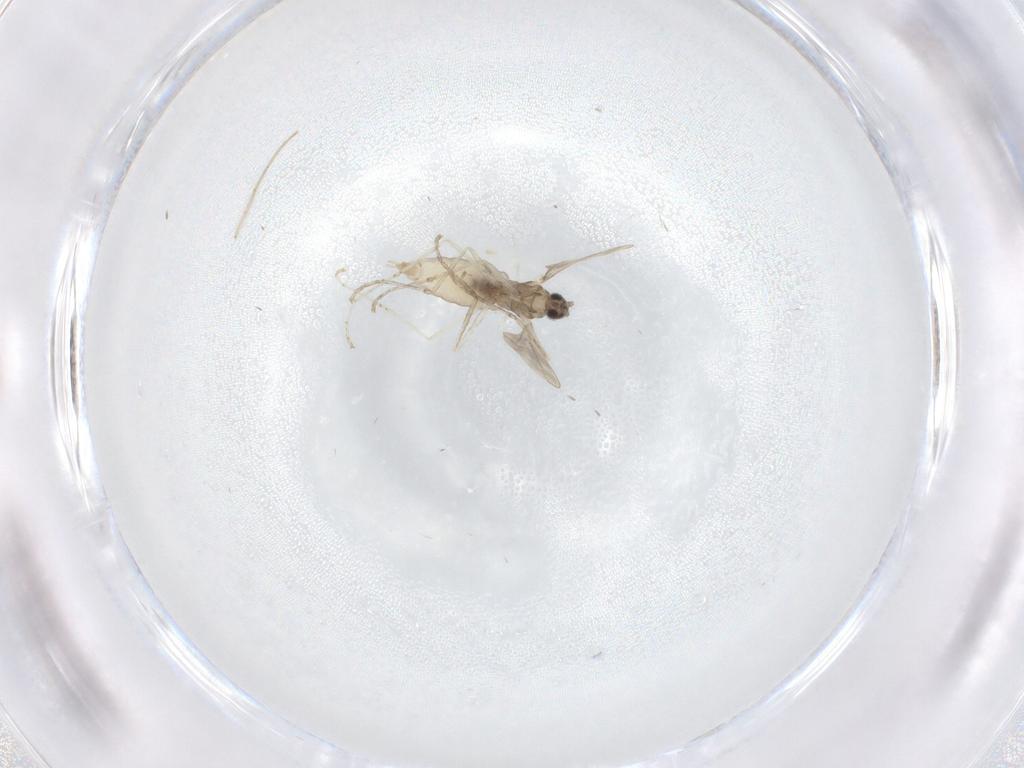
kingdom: Animalia
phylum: Arthropoda
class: Insecta
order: Diptera
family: Cecidomyiidae
